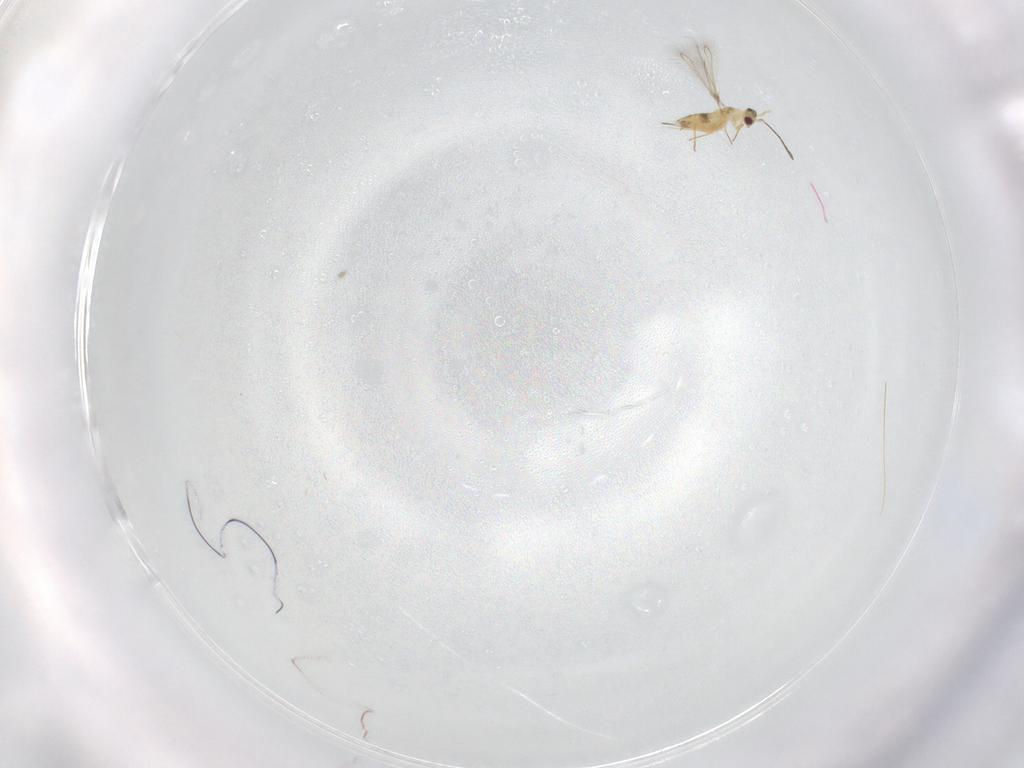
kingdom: Animalia
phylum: Arthropoda
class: Insecta
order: Hymenoptera
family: Mymaridae
